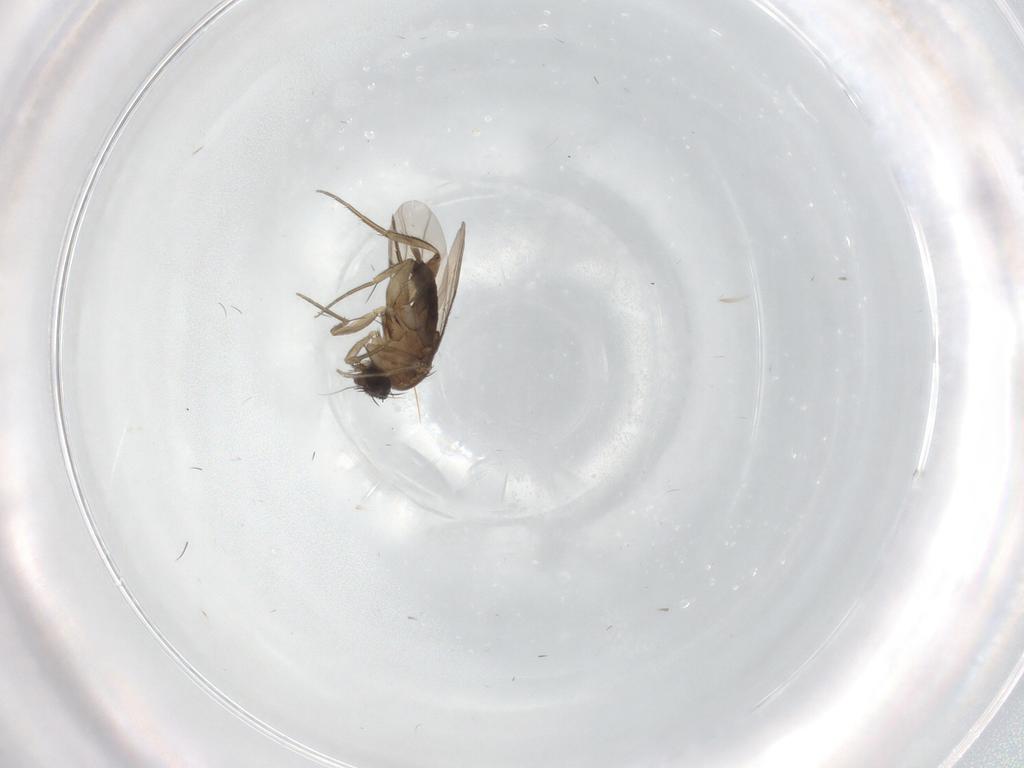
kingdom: Animalia
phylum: Arthropoda
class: Insecta
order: Diptera
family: Phoridae
